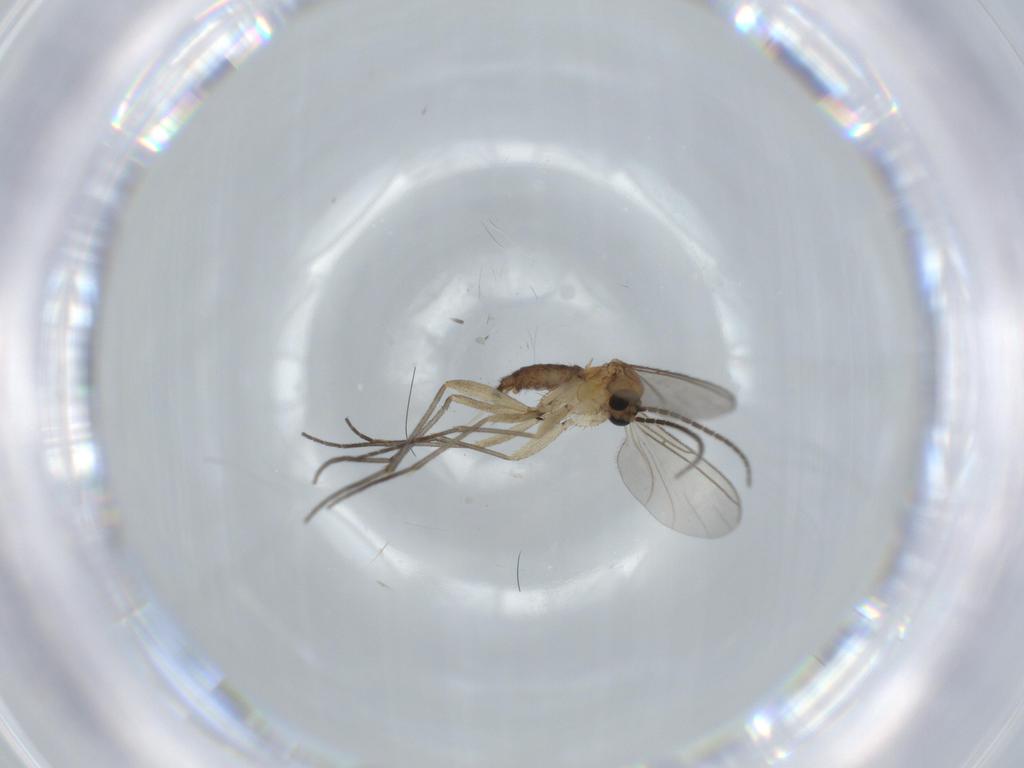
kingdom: Animalia
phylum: Arthropoda
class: Insecta
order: Diptera
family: Sciaridae
